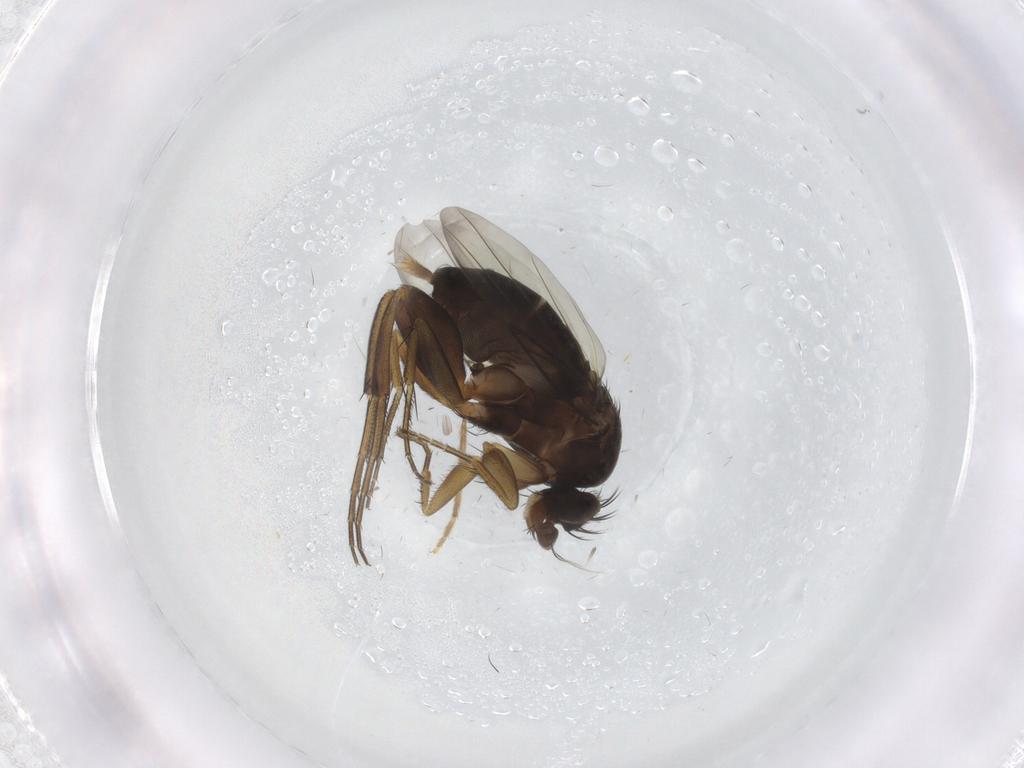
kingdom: Animalia
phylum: Arthropoda
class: Insecta
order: Diptera
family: Chironomidae
